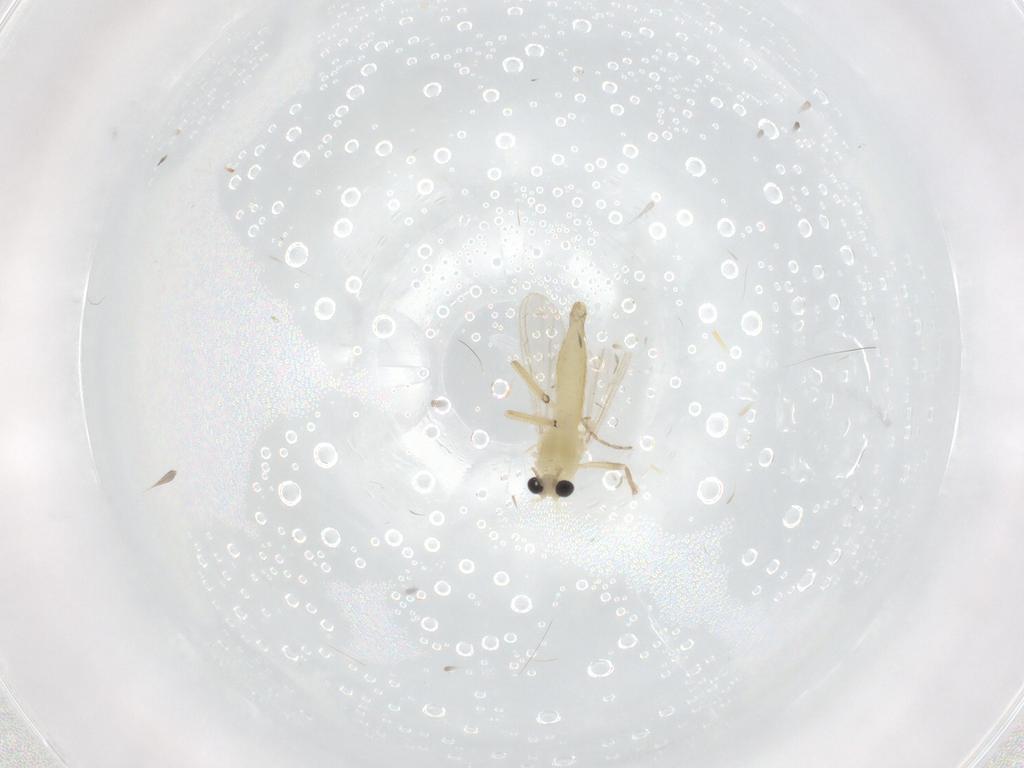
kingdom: Animalia
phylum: Arthropoda
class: Insecta
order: Diptera
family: Chironomidae
